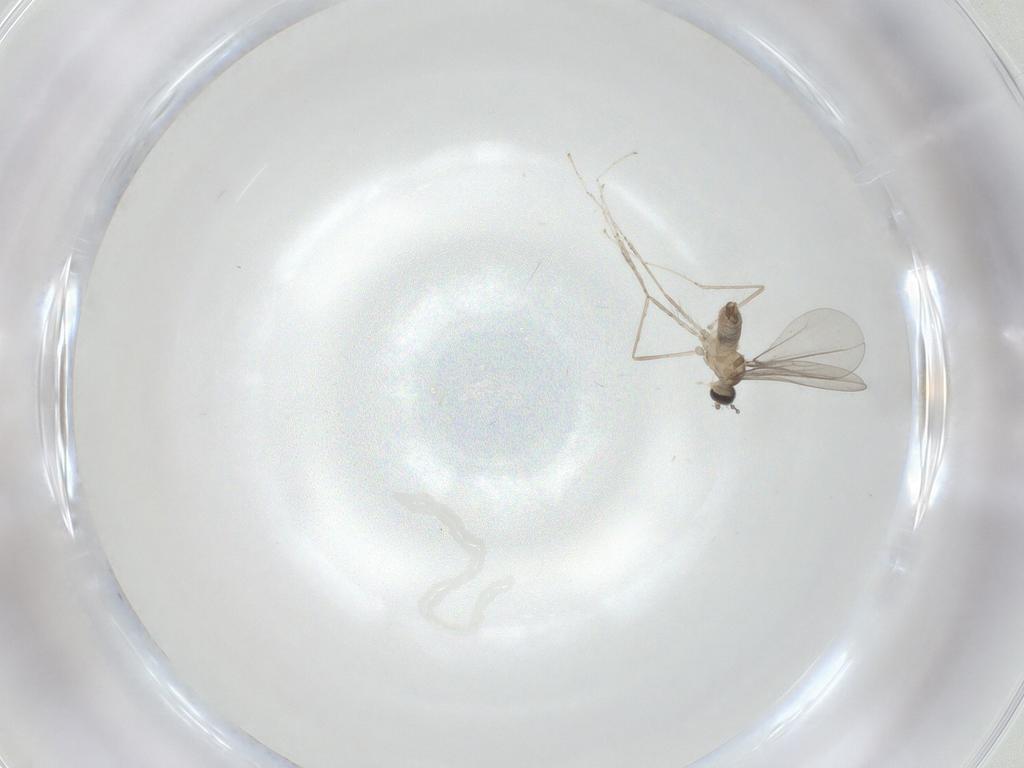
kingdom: Animalia
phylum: Arthropoda
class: Insecta
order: Diptera
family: Cecidomyiidae
